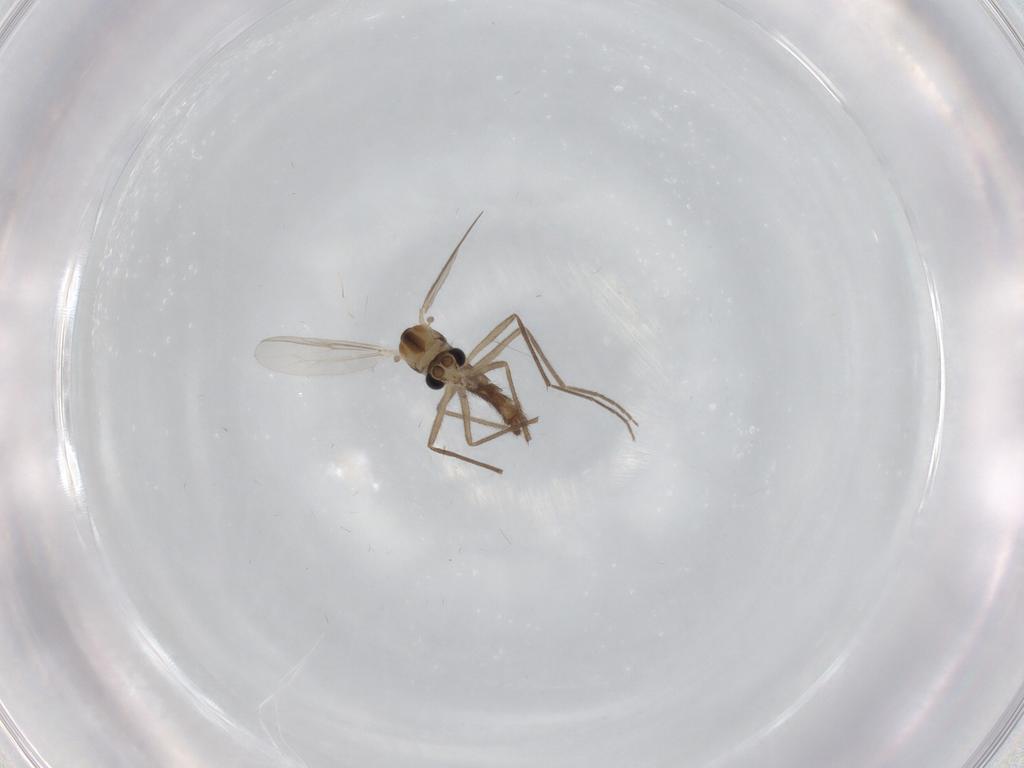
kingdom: Animalia
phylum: Arthropoda
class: Insecta
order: Diptera
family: Chironomidae
